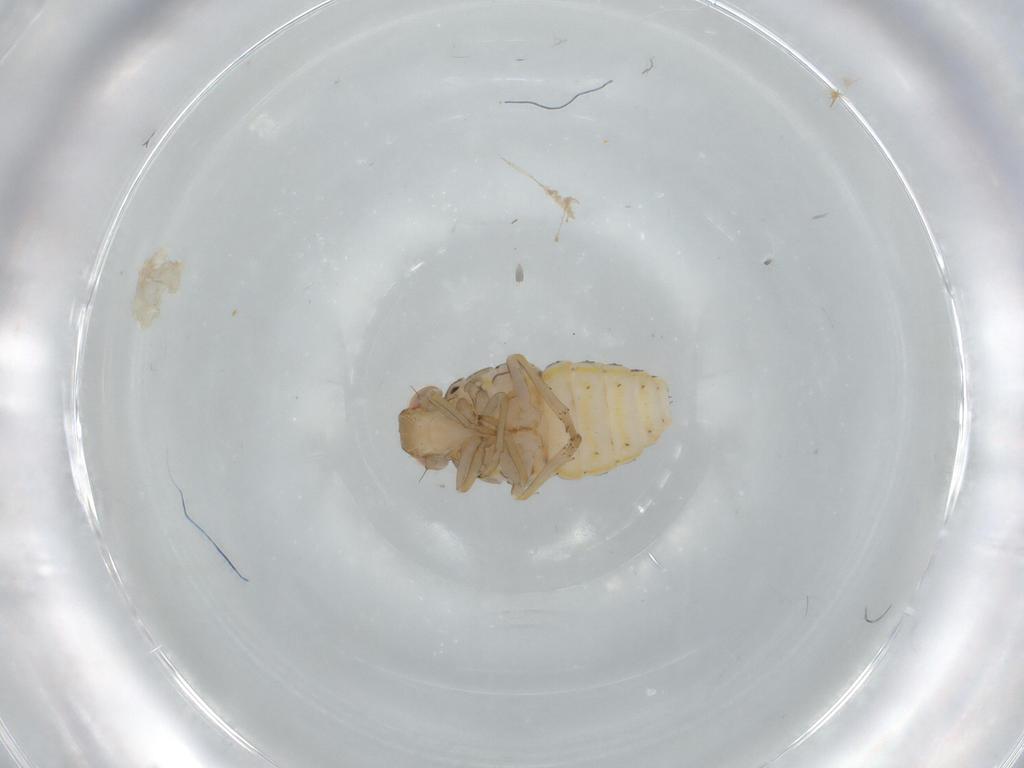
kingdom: Animalia
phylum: Arthropoda
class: Insecta
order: Hemiptera
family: Issidae
